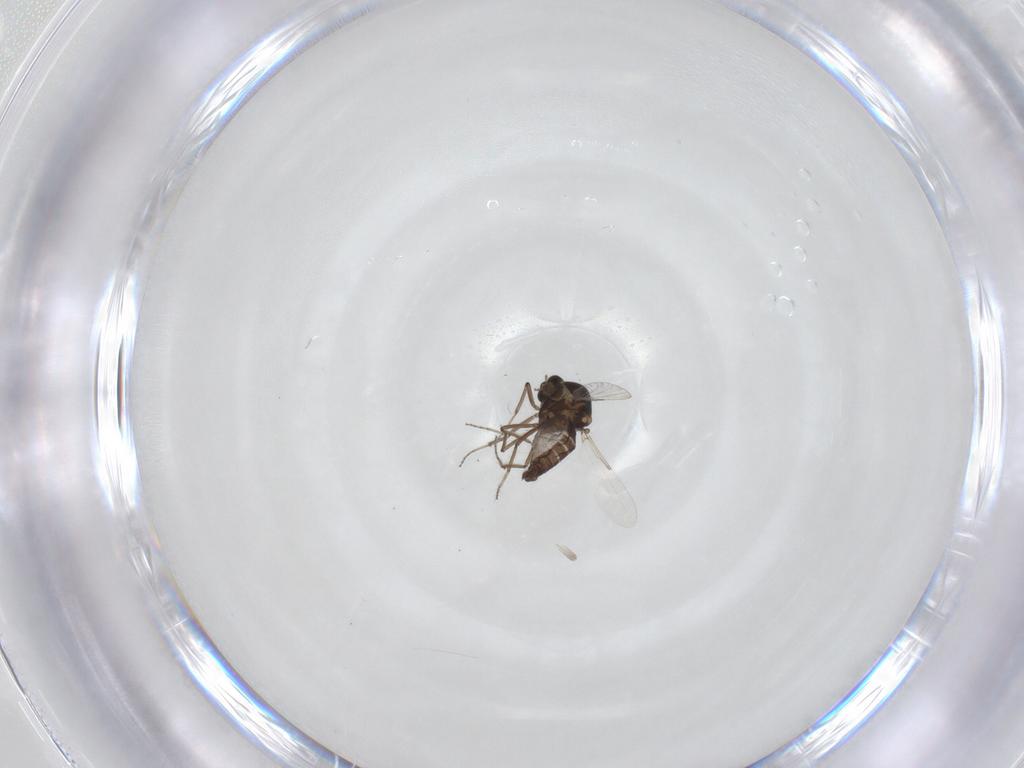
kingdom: Animalia
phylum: Arthropoda
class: Insecta
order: Diptera
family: Ceratopogonidae
